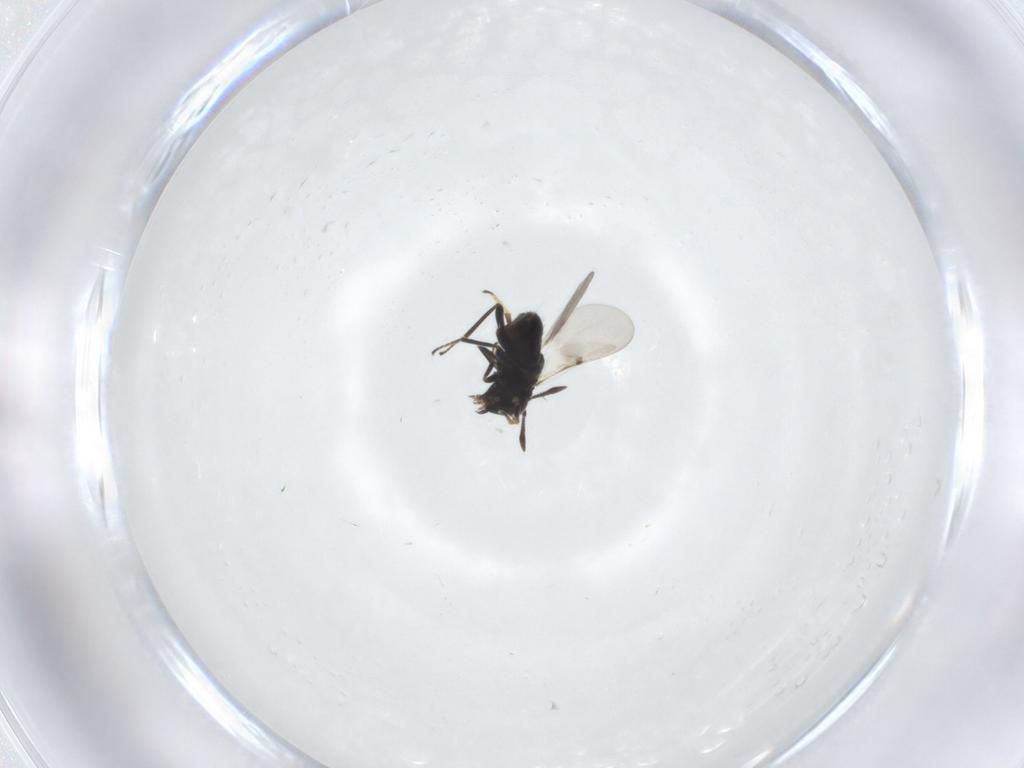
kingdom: Animalia
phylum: Arthropoda
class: Insecta
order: Hymenoptera
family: Encyrtidae
